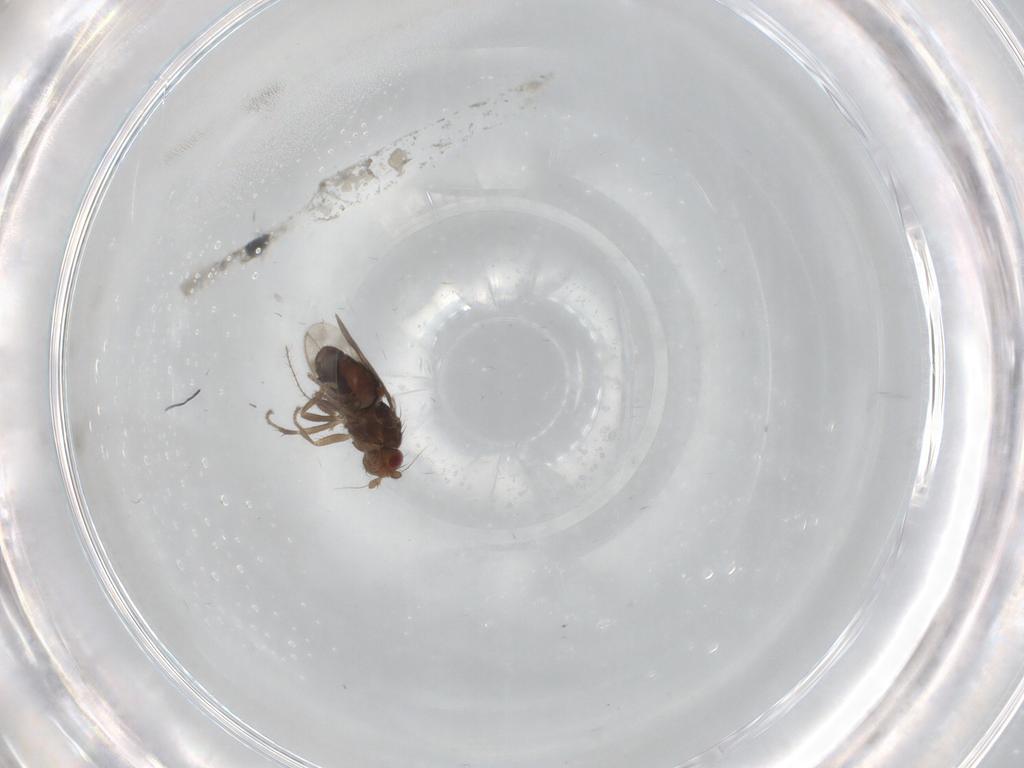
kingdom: Animalia
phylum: Arthropoda
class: Insecta
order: Diptera
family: Sphaeroceridae
